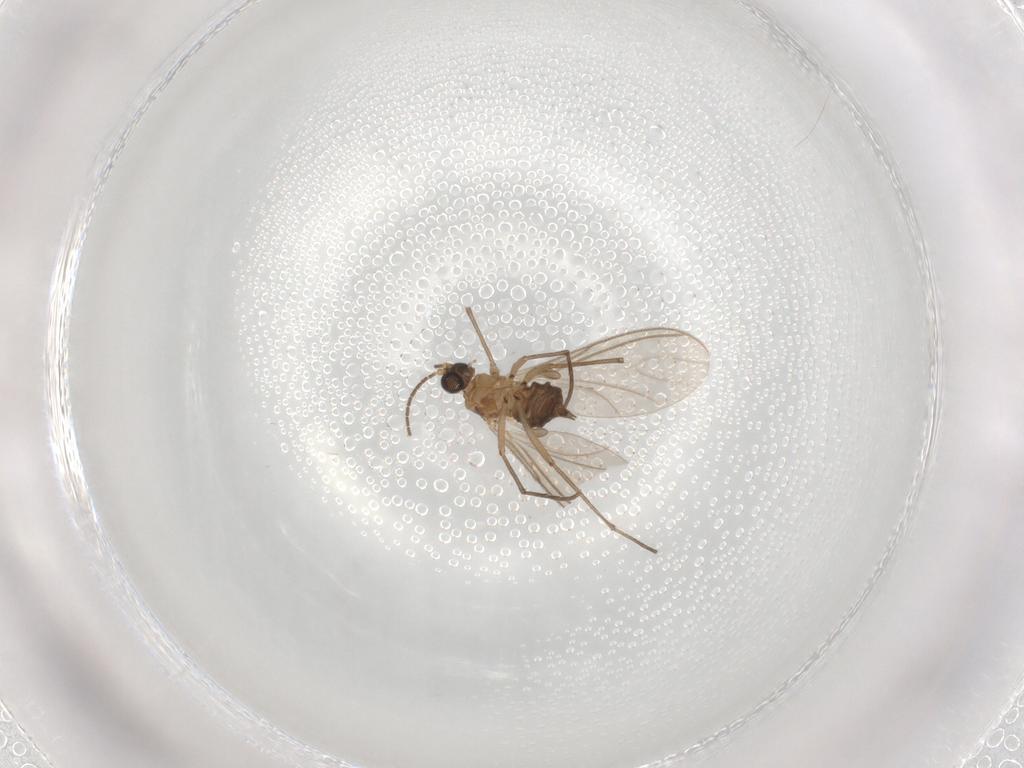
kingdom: Animalia
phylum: Arthropoda
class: Insecta
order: Diptera
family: Sciaridae
